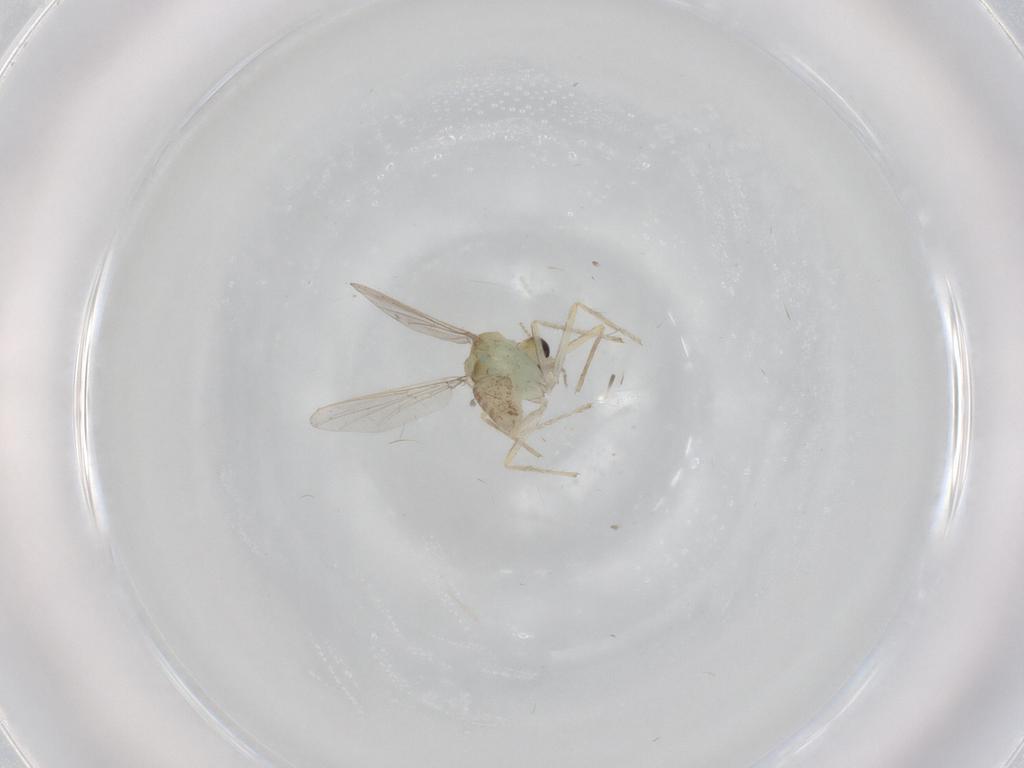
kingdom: Animalia
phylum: Arthropoda
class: Insecta
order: Diptera
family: Chironomidae
